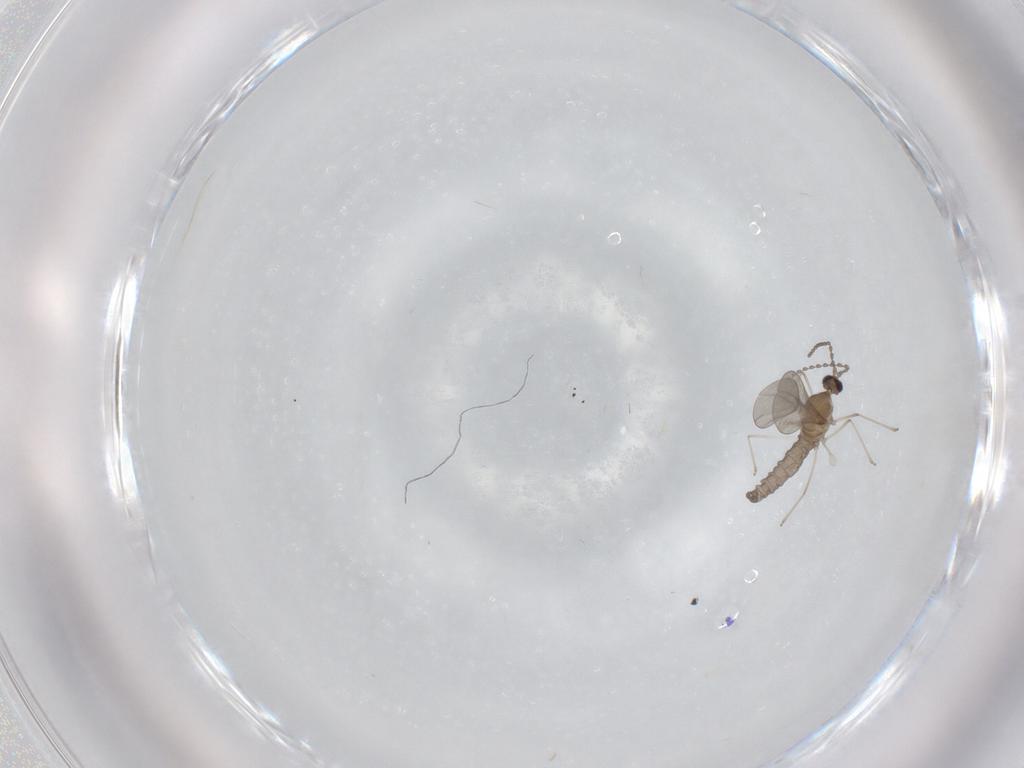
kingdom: Animalia
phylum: Arthropoda
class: Insecta
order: Diptera
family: Cecidomyiidae
